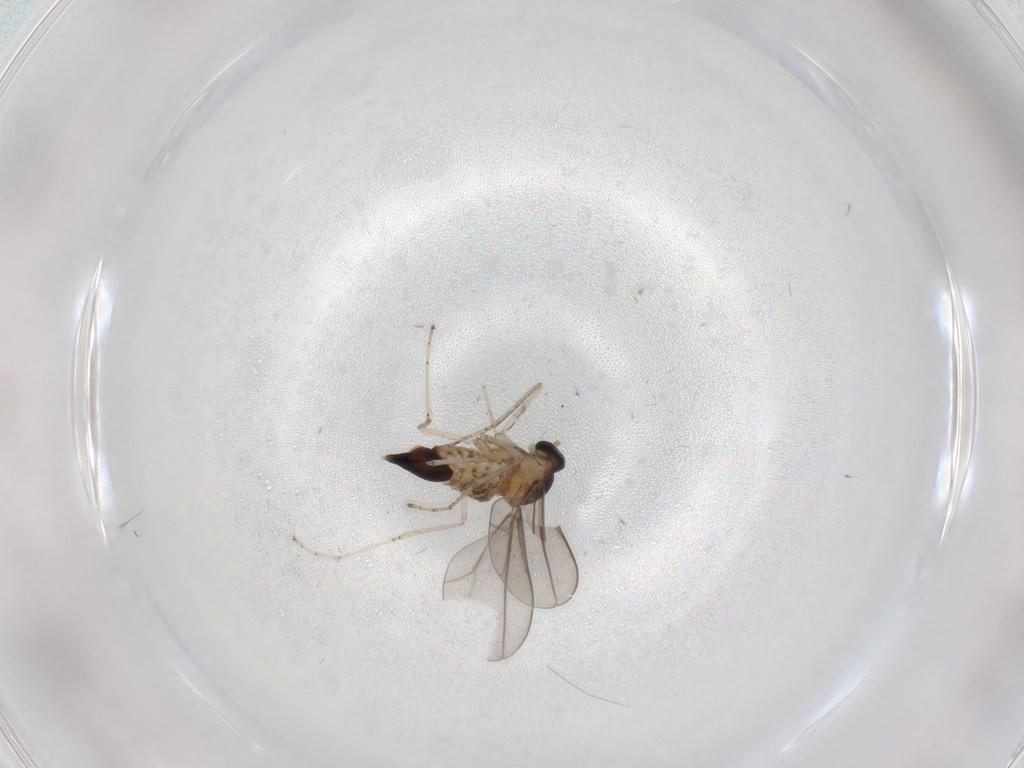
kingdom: Animalia
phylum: Arthropoda
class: Insecta
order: Diptera
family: Cecidomyiidae
